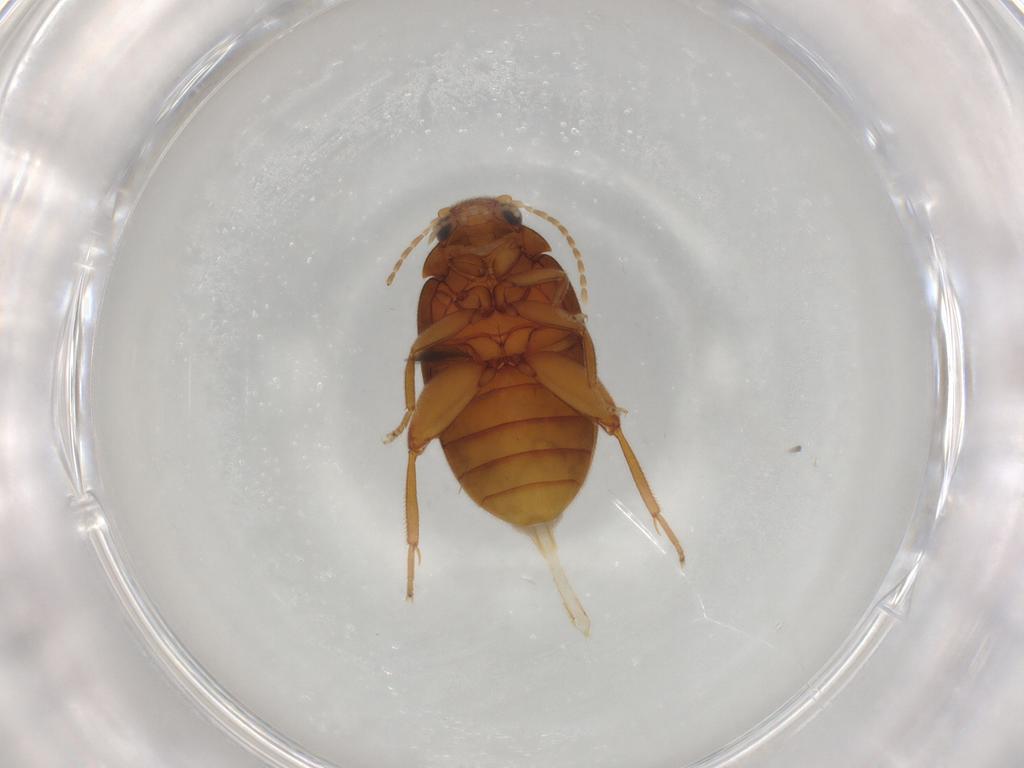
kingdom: Animalia
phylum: Arthropoda
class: Insecta
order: Coleoptera
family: Scirtidae
